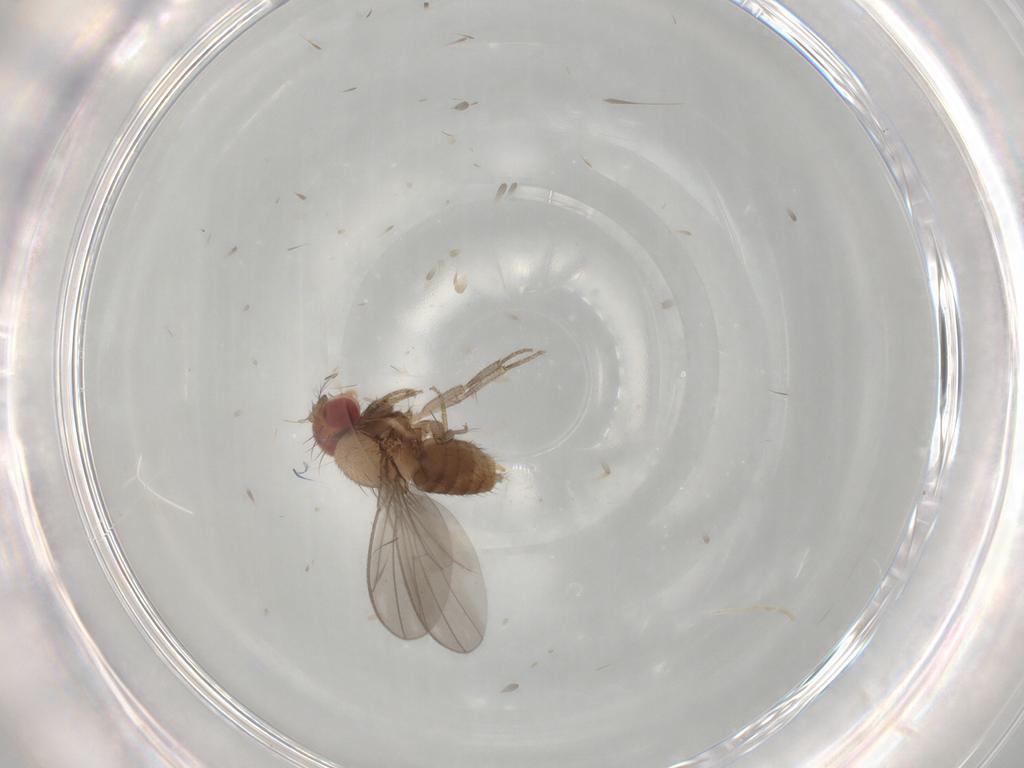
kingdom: Animalia
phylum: Arthropoda
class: Insecta
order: Diptera
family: Drosophilidae
